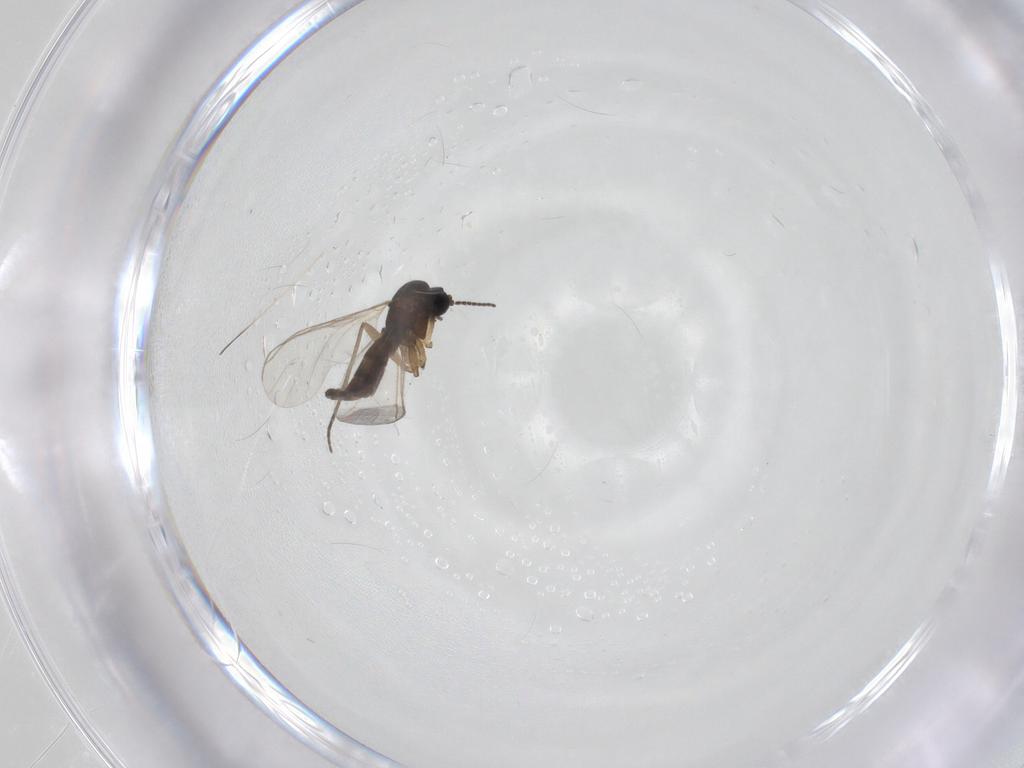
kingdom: Animalia
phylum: Arthropoda
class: Insecta
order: Diptera
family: Sciaridae
